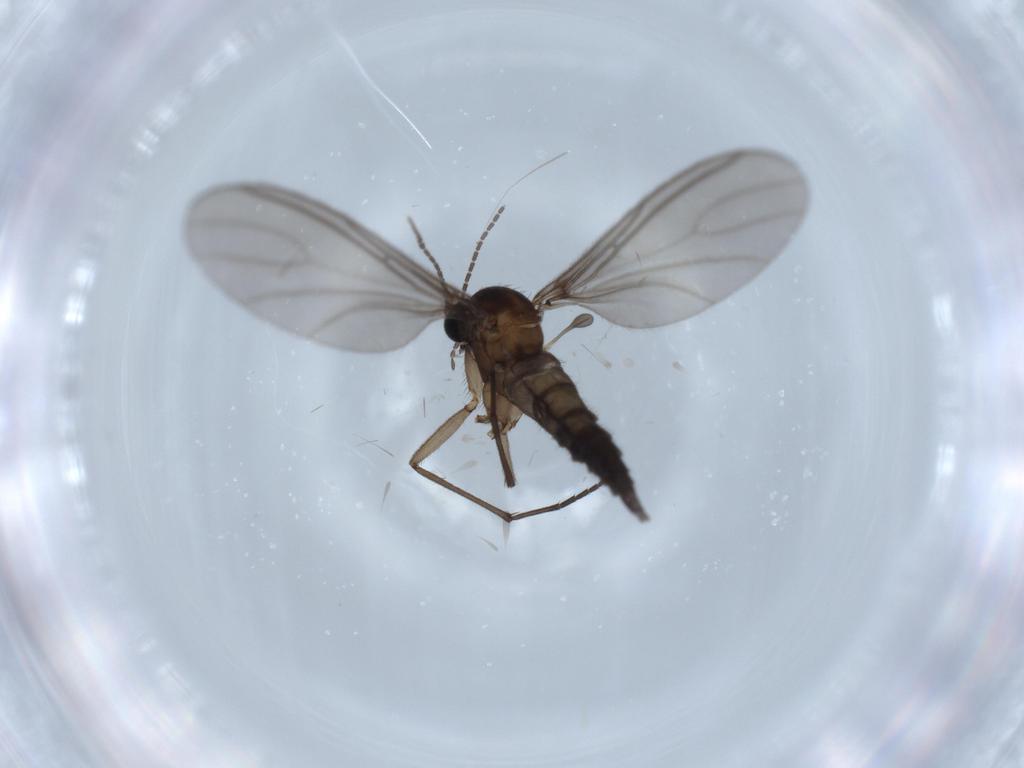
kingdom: Animalia
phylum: Arthropoda
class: Insecta
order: Diptera
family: Sciaridae
